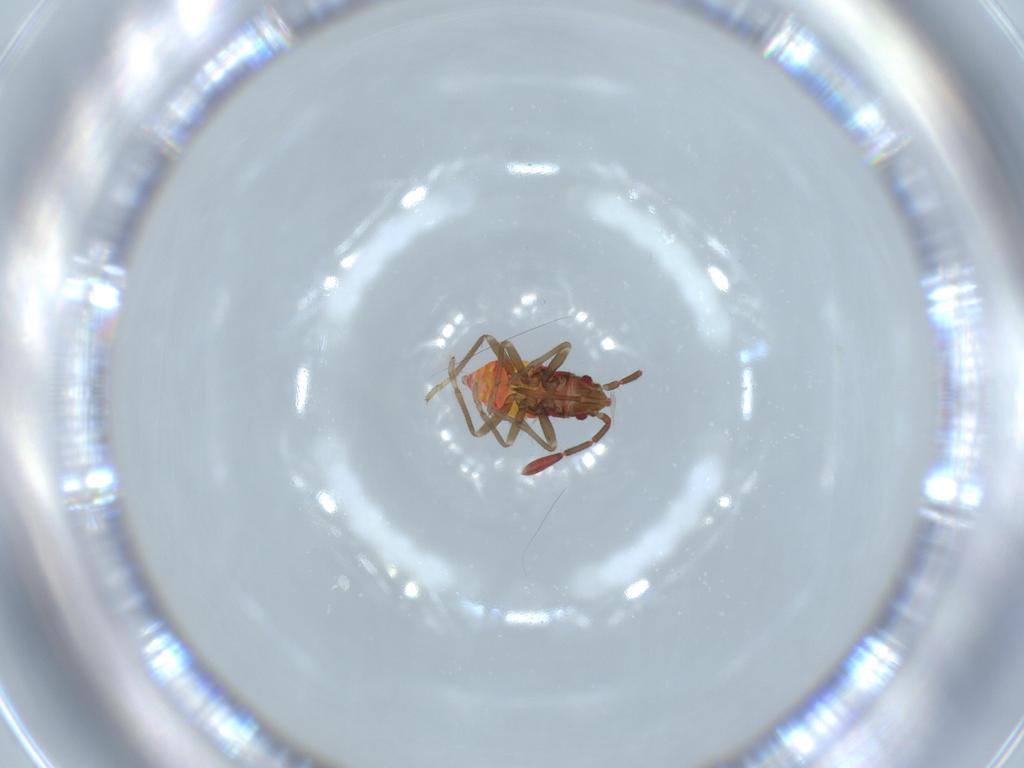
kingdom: Animalia
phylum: Arthropoda
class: Insecta
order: Hemiptera
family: Rhyparochromidae
